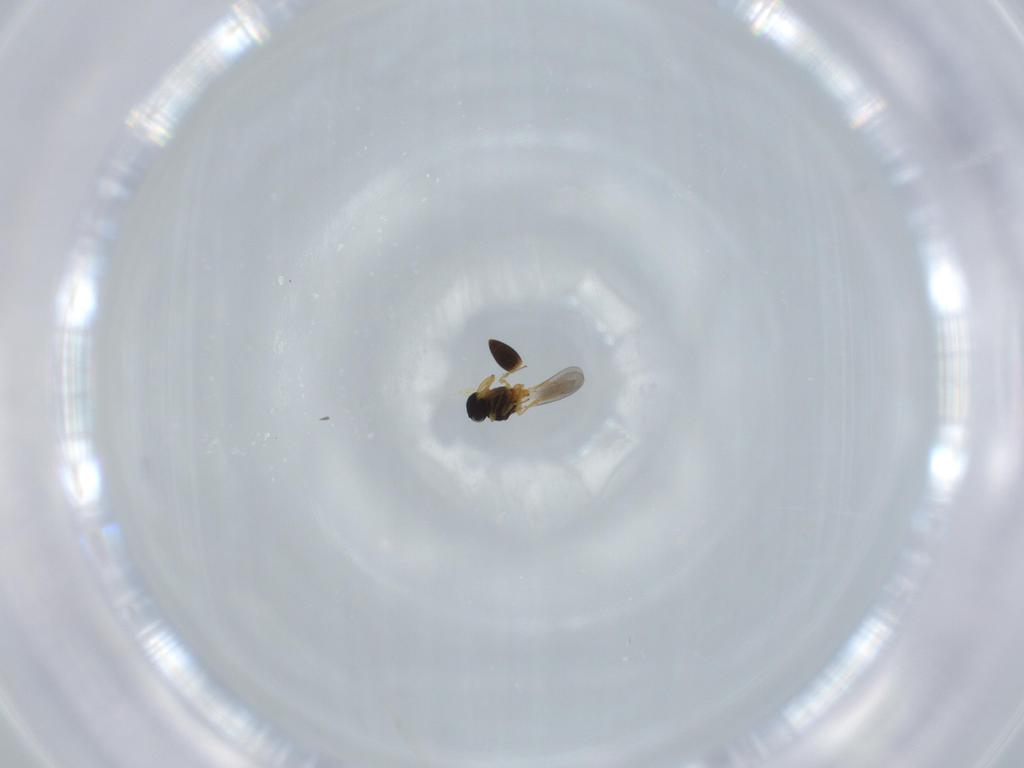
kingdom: Animalia
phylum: Arthropoda
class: Insecta
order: Hymenoptera
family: Platygastridae
